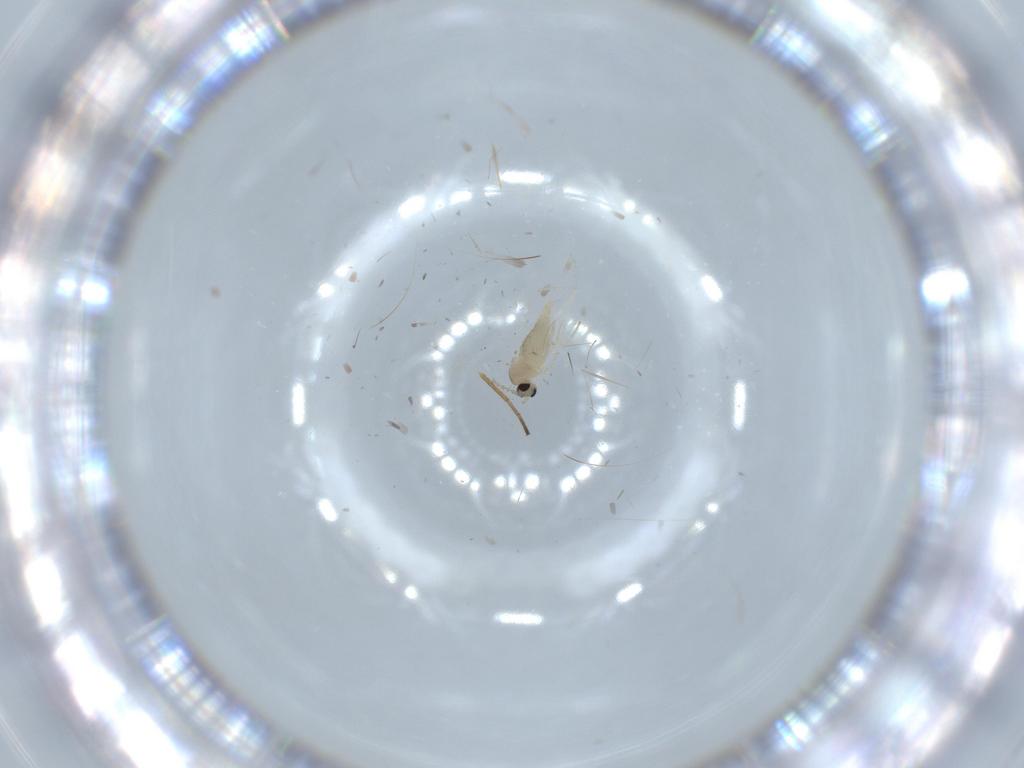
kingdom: Animalia
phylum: Arthropoda
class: Insecta
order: Diptera
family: Cecidomyiidae
